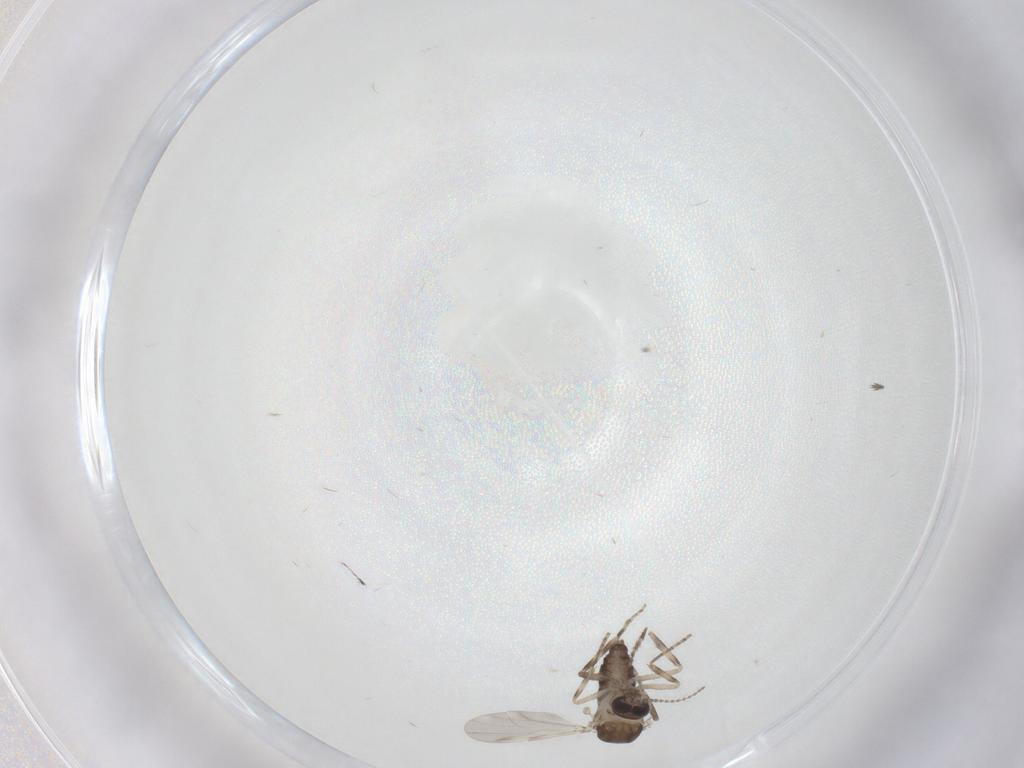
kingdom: Animalia
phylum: Arthropoda
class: Insecta
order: Diptera
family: Ceratopogonidae
